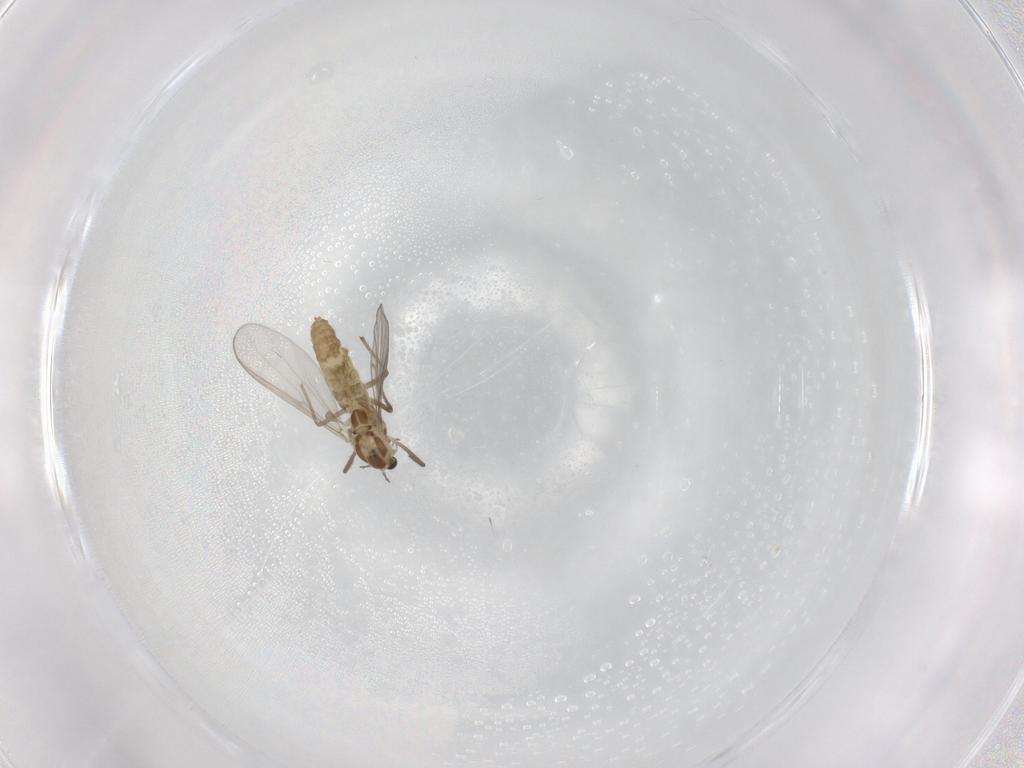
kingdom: Animalia
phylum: Arthropoda
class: Insecta
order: Diptera
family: Chironomidae
